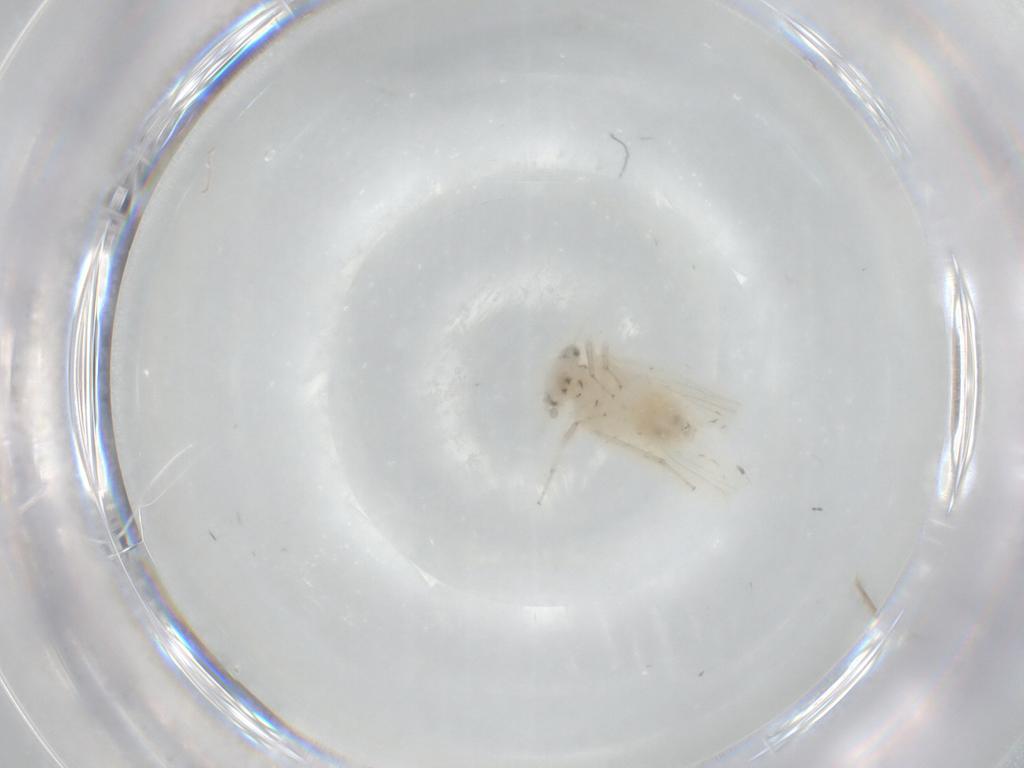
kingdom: Animalia
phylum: Arthropoda
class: Insecta
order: Psocodea
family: Lepidopsocidae
